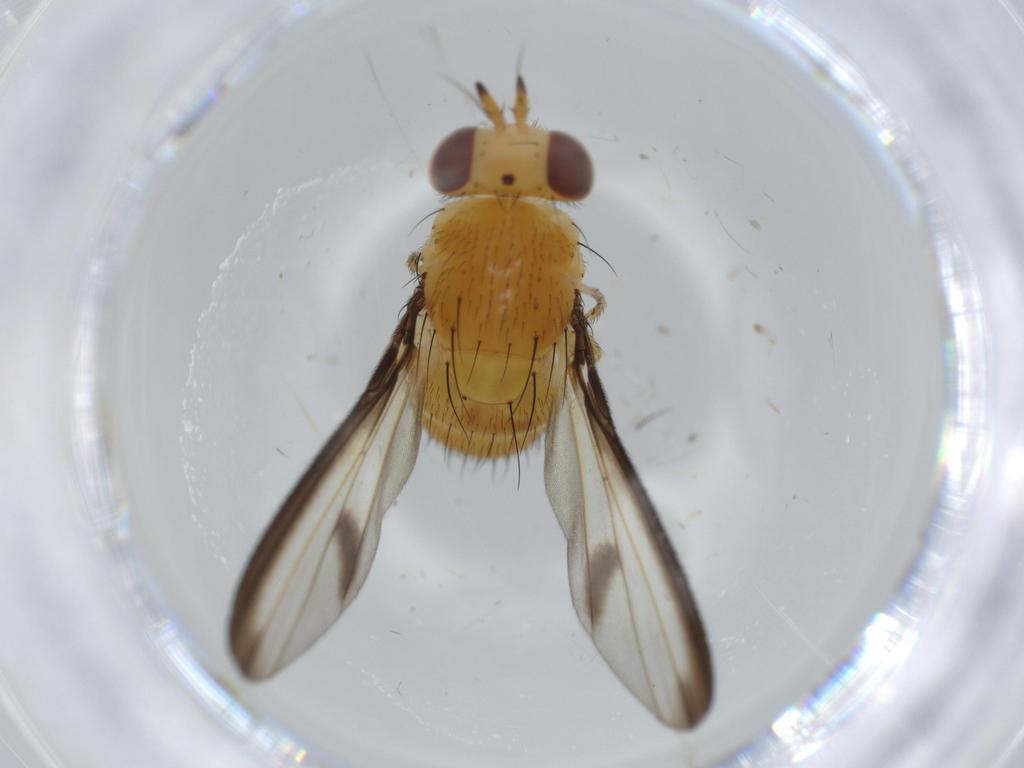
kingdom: Animalia
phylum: Arthropoda
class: Insecta
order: Diptera
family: Lauxaniidae
